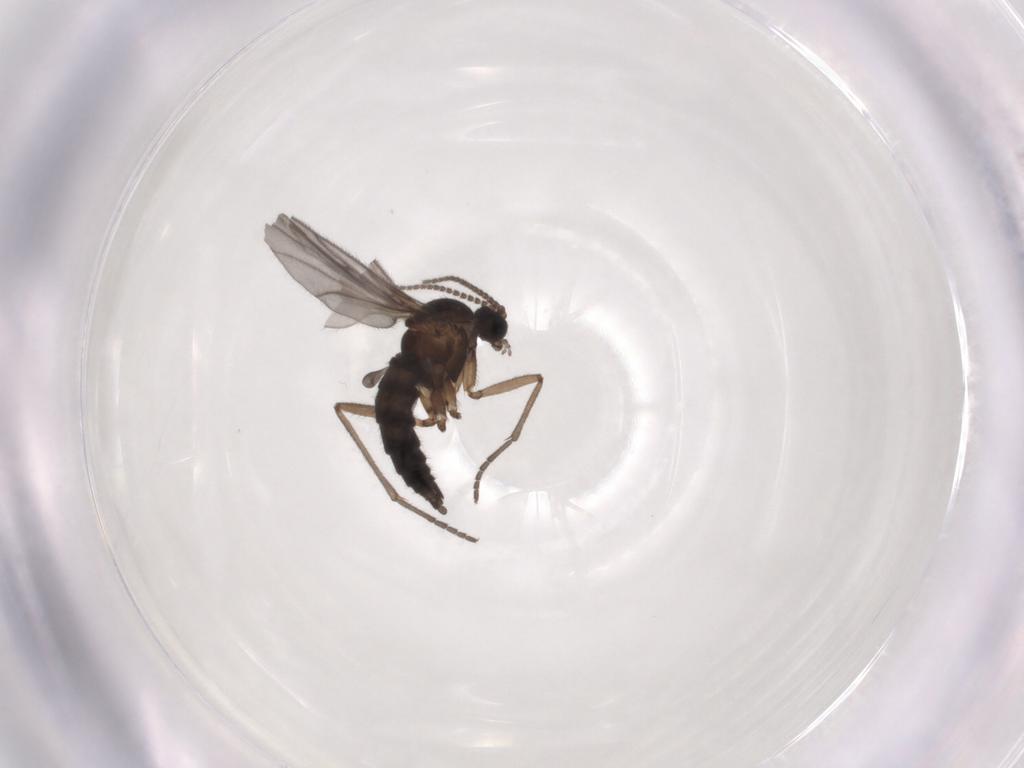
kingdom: Animalia
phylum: Arthropoda
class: Insecta
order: Diptera
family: Sciaridae
